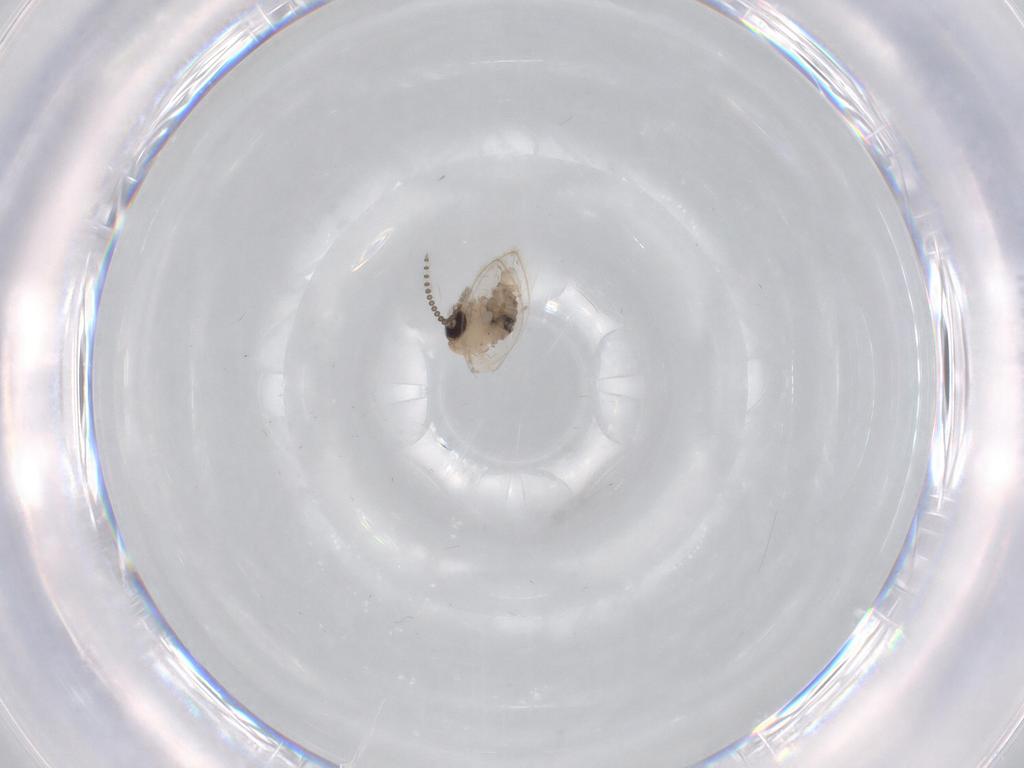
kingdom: Animalia
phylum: Arthropoda
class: Insecta
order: Diptera
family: Psychodidae
